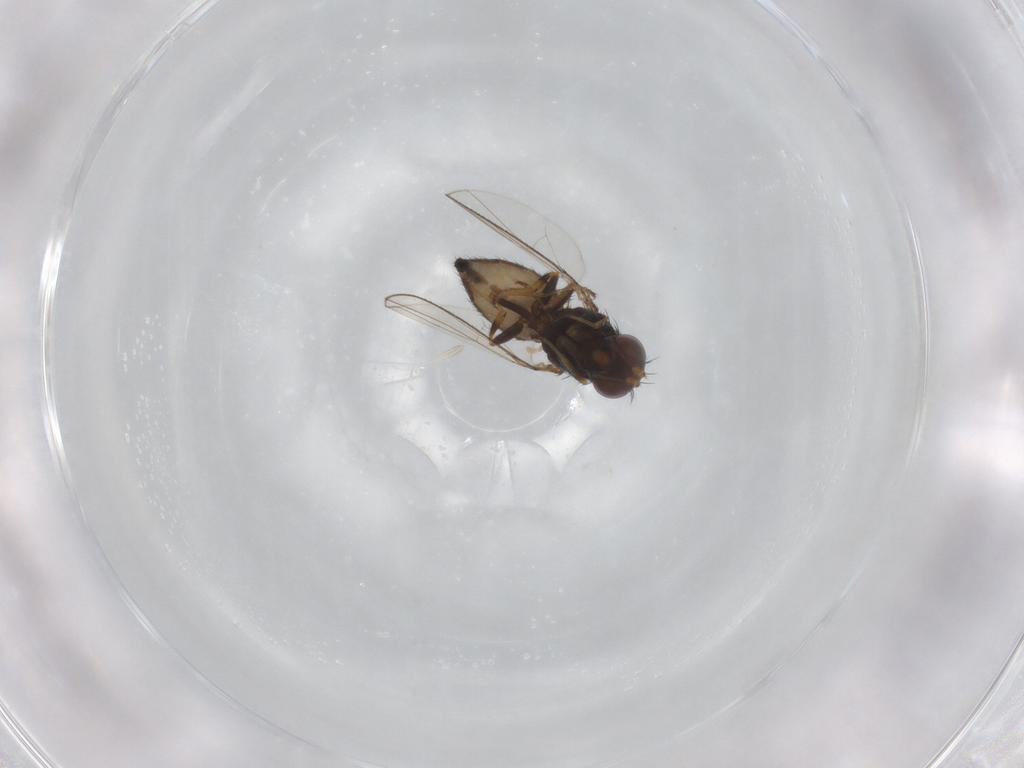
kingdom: Animalia
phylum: Arthropoda
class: Insecta
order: Diptera
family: Ephydridae
